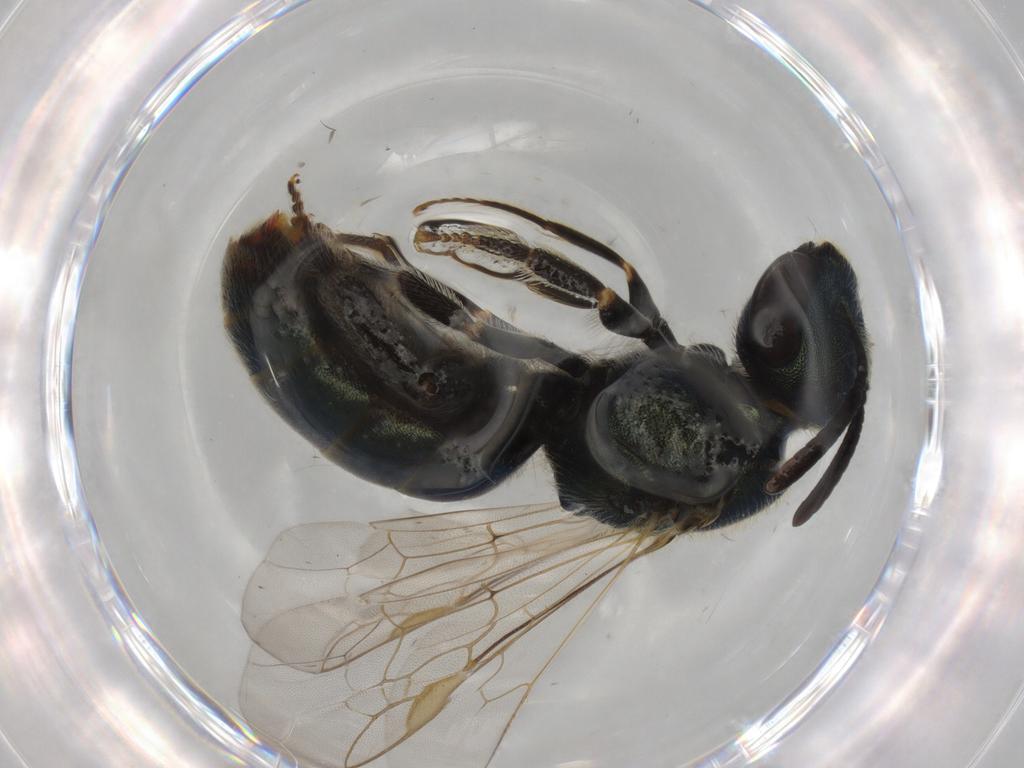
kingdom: Animalia
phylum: Arthropoda
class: Insecta
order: Hymenoptera
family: Halictidae
